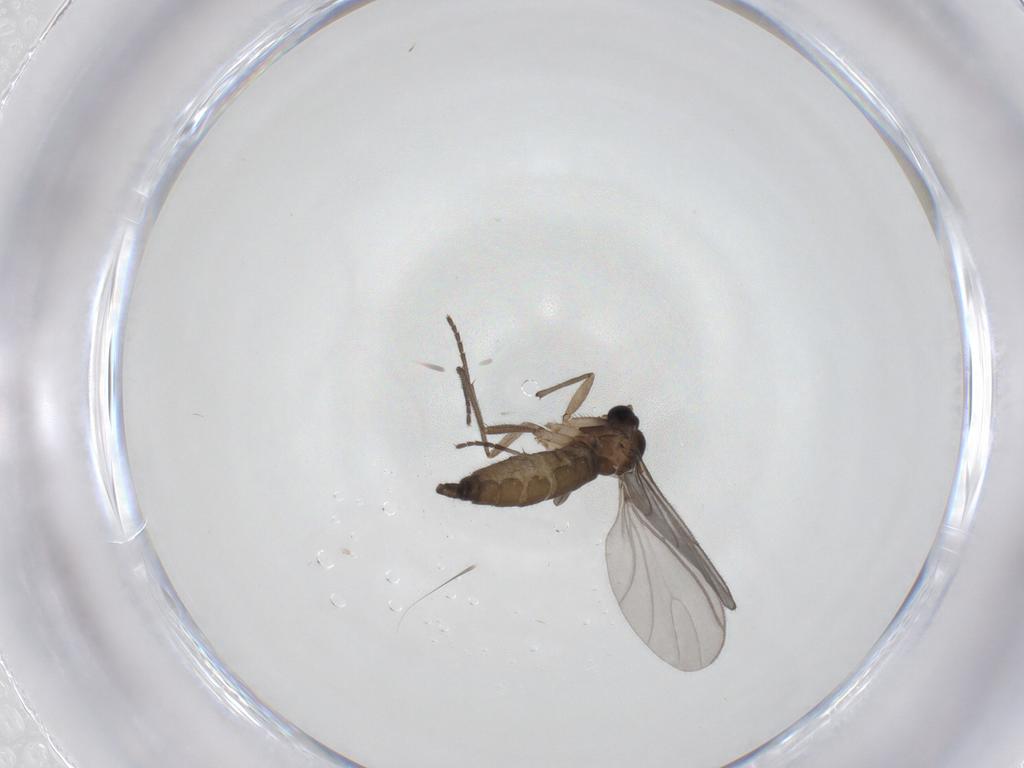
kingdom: Animalia
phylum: Arthropoda
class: Insecta
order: Diptera
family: Sciaridae
